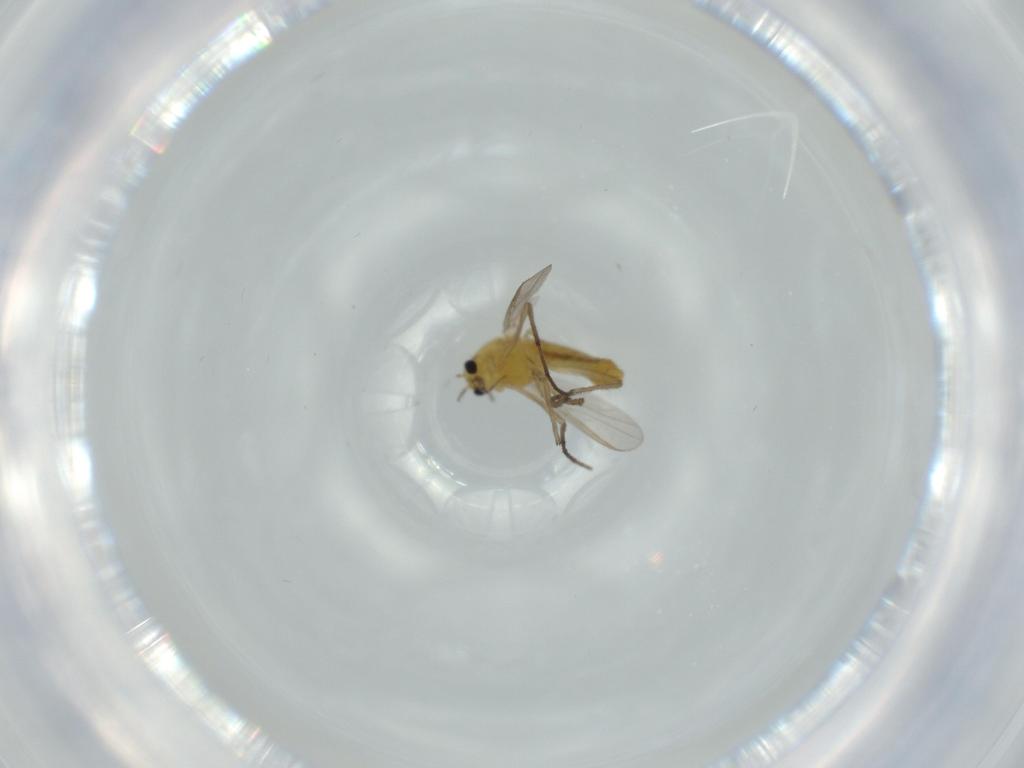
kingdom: Animalia
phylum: Arthropoda
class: Insecta
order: Diptera
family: Chironomidae
